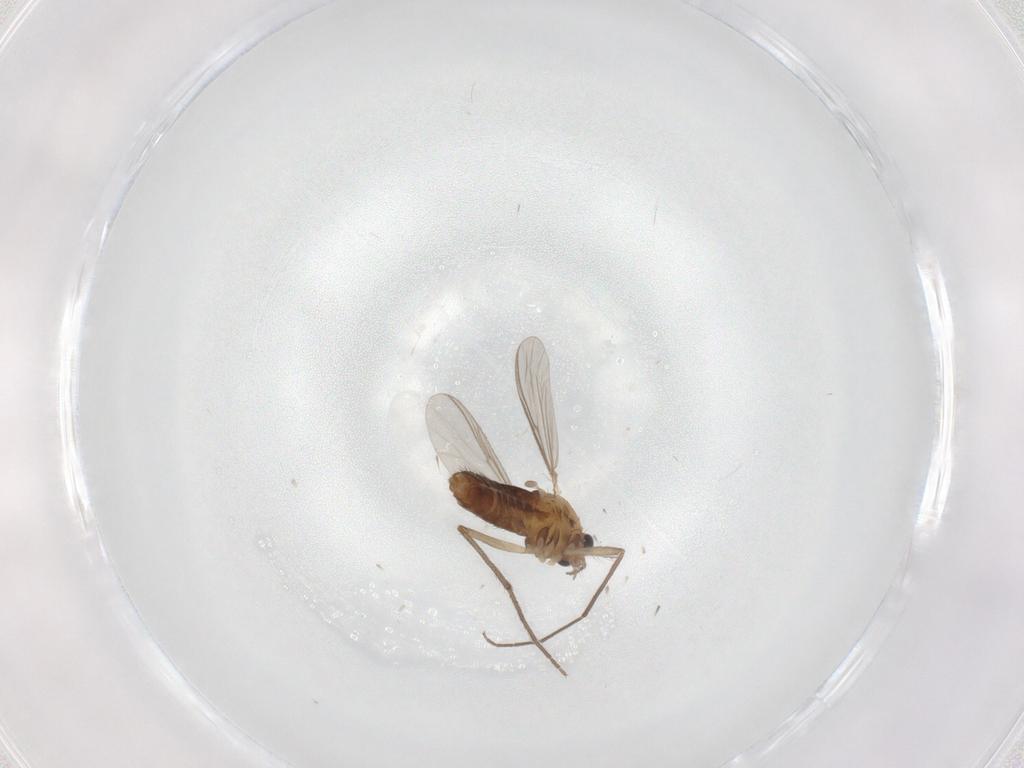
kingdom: Animalia
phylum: Arthropoda
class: Insecta
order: Diptera
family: Chironomidae
